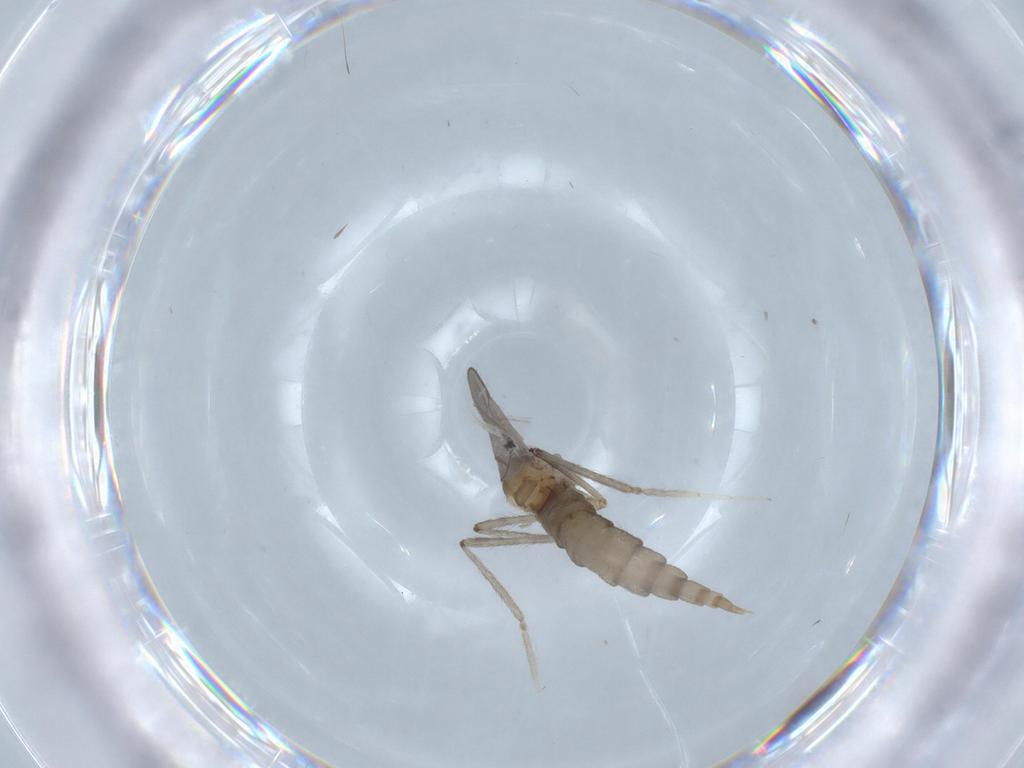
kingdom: Animalia
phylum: Arthropoda
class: Insecta
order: Diptera
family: Cecidomyiidae
